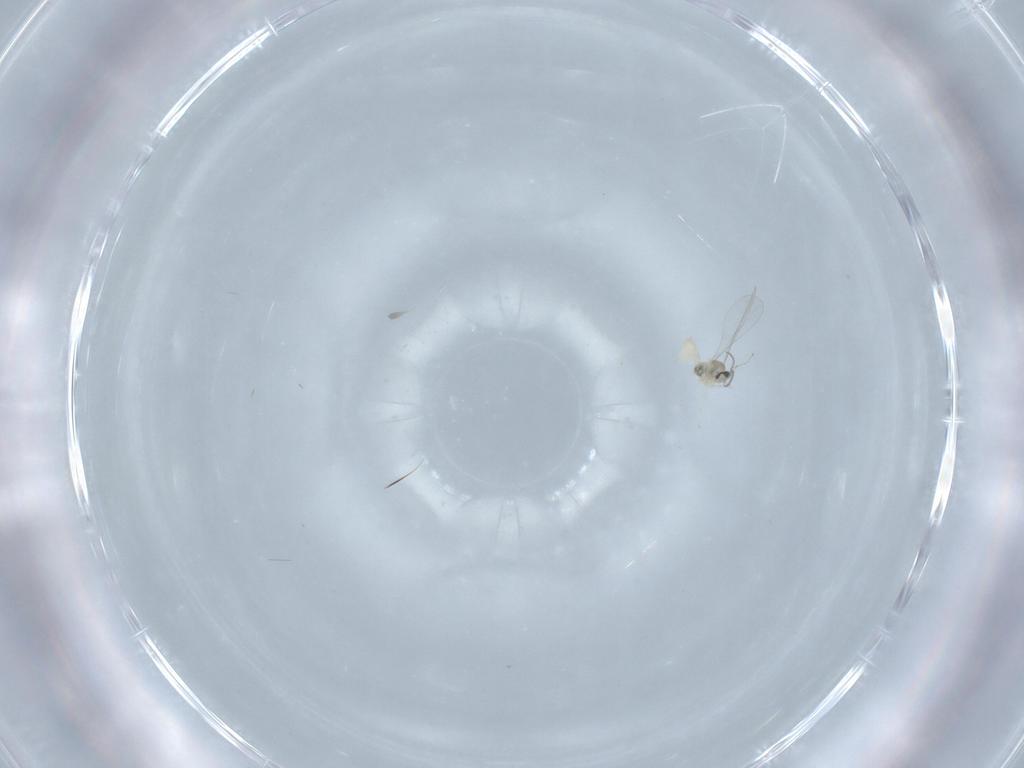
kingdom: Animalia
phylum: Arthropoda
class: Insecta
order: Diptera
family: Cecidomyiidae
